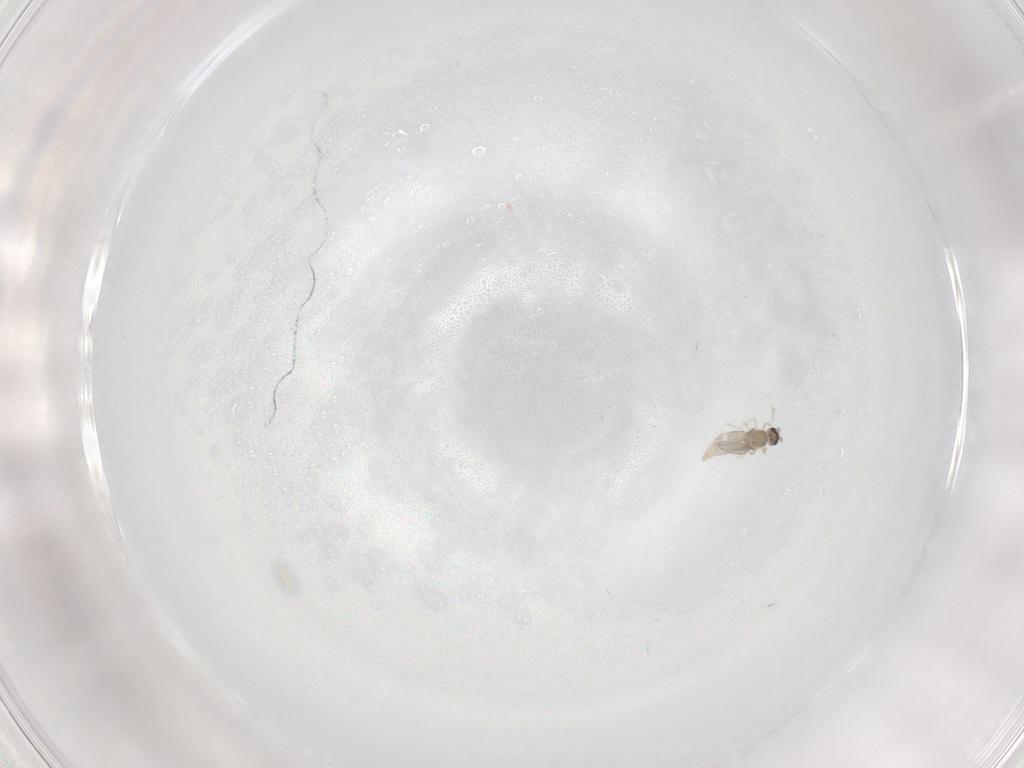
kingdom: Animalia
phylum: Arthropoda
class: Insecta
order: Diptera
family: Cecidomyiidae
